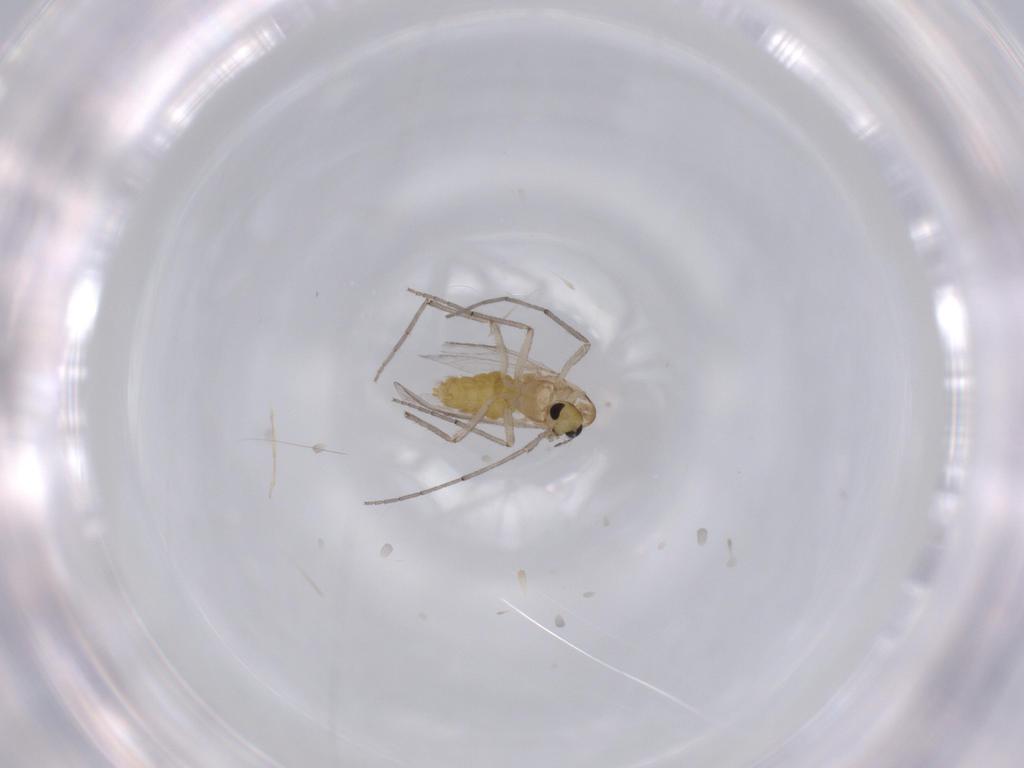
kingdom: Animalia
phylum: Arthropoda
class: Insecta
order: Diptera
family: Chironomidae
